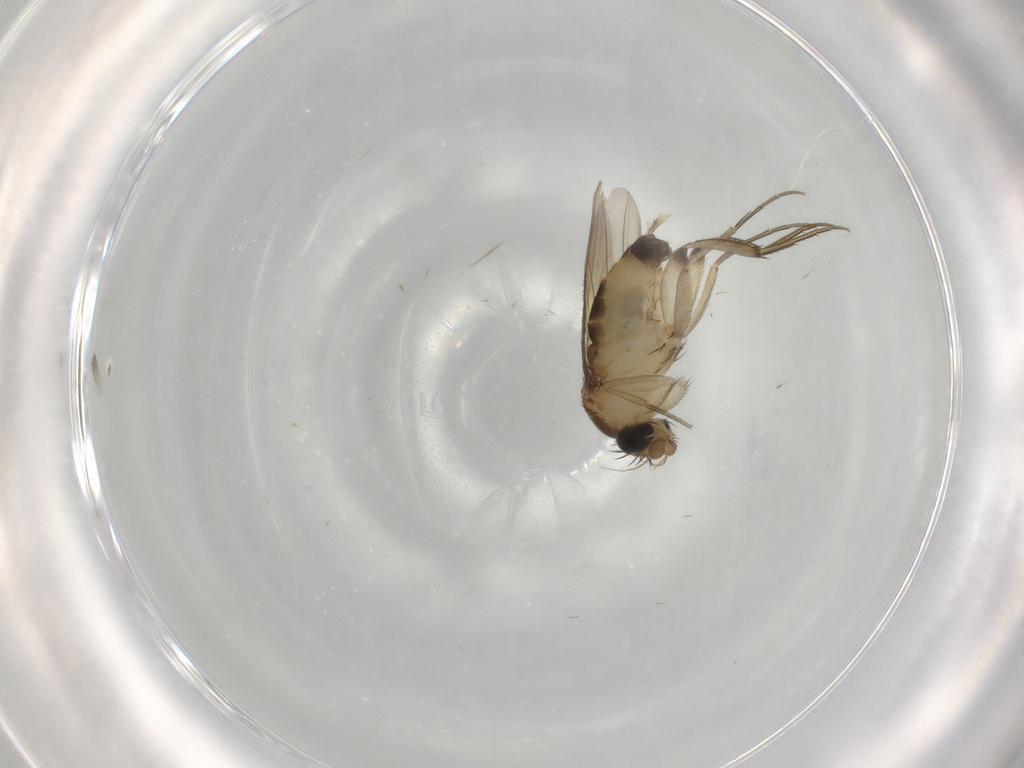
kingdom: Animalia
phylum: Arthropoda
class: Insecta
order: Diptera
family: Phoridae
